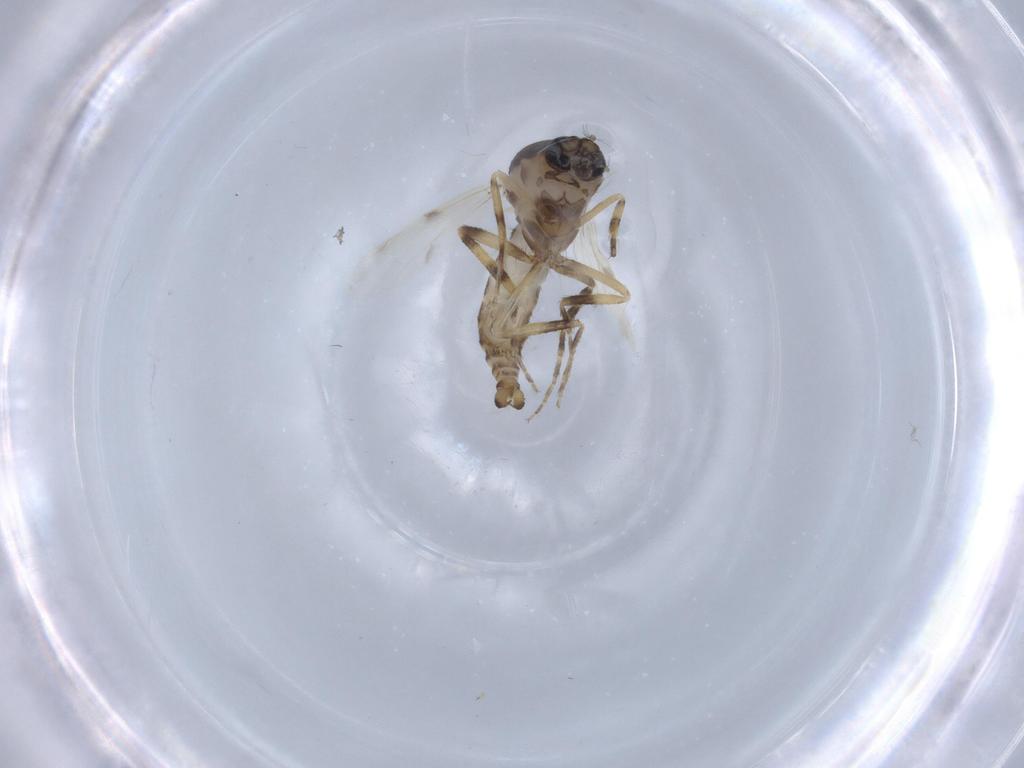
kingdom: Animalia
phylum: Arthropoda
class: Insecta
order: Diptera
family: Ceratopogonidae
